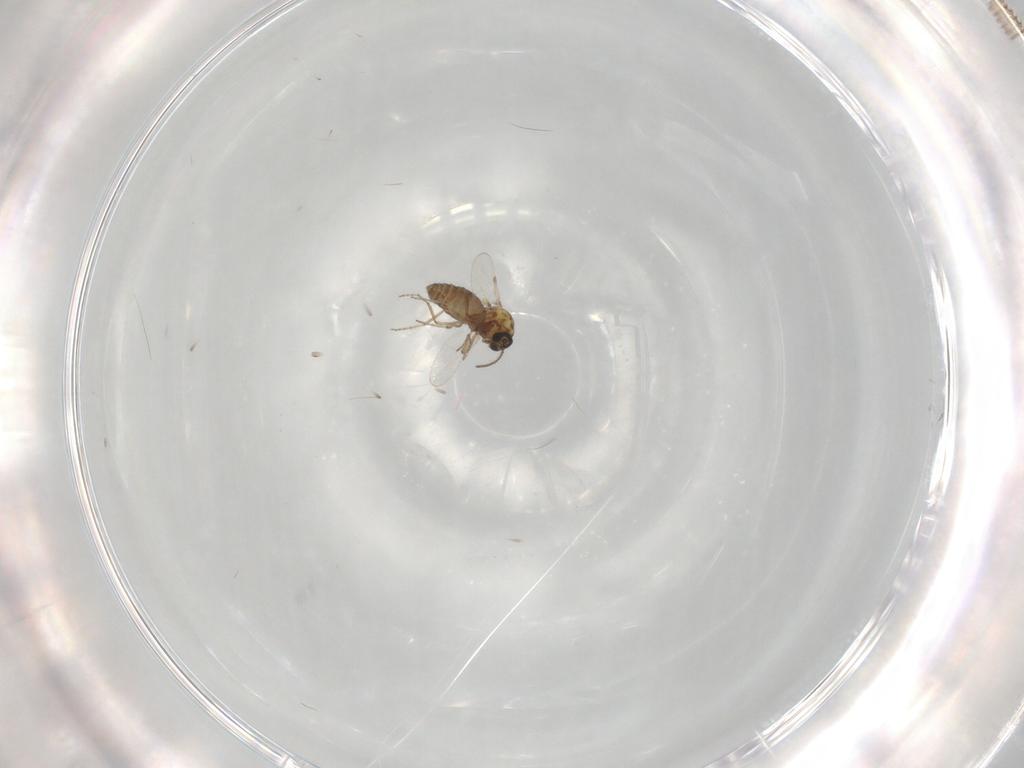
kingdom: Animalia
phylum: Arthropoda
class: Insecta
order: Diptera
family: Ceratopogonidae
